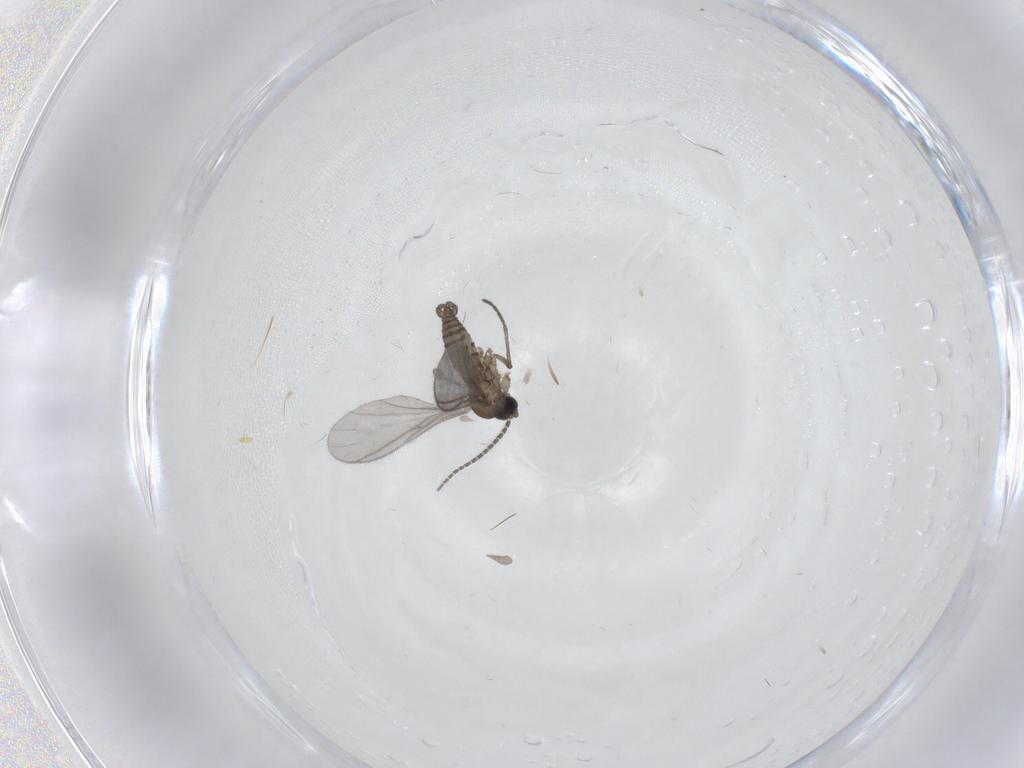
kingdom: Animalia
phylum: Arthropoda
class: Insecta
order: Diptera
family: Sciaridae
